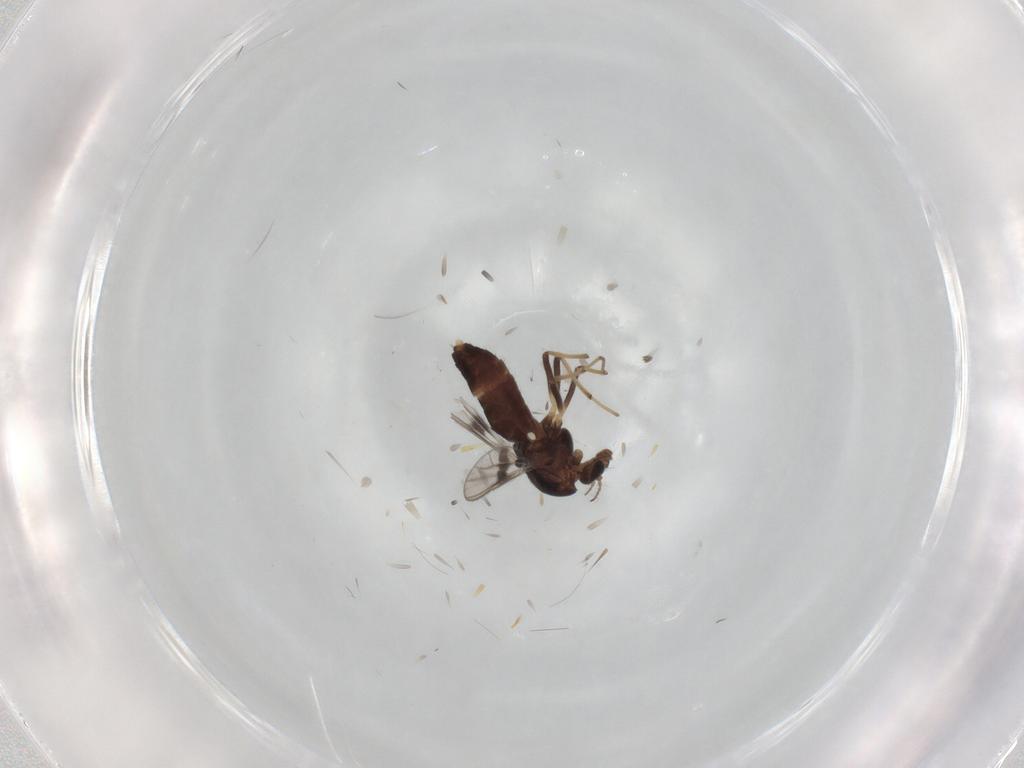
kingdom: Animalia
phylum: Arthropoda
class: Insecta
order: Diptera
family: Chironomidae
